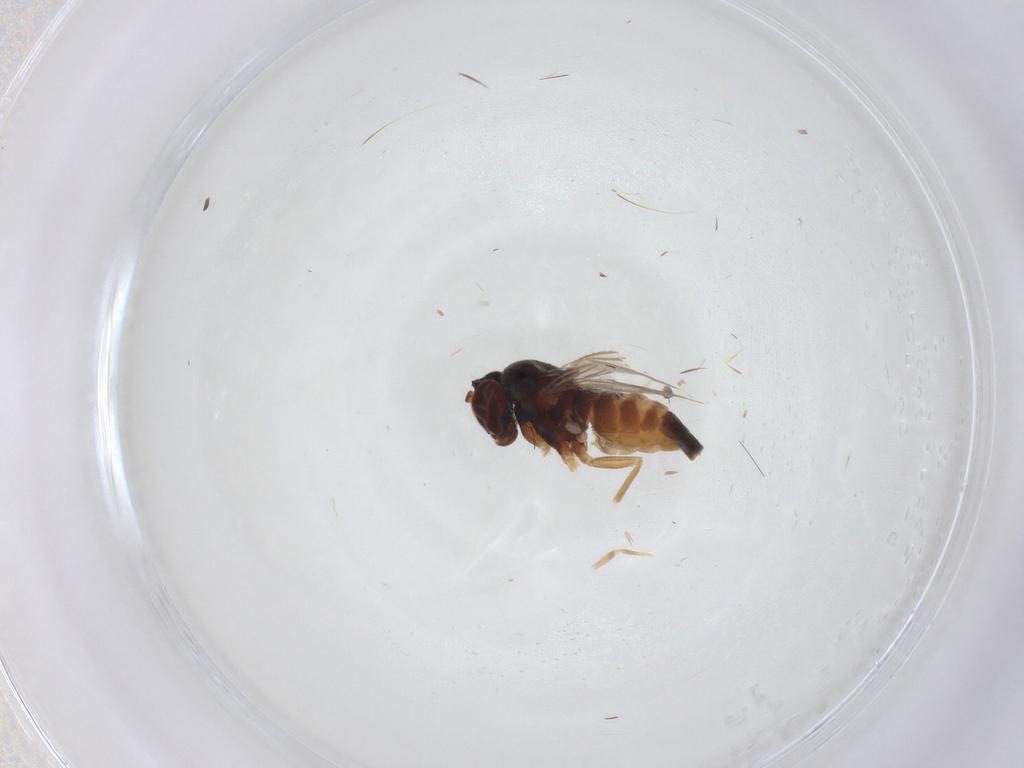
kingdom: Animalia
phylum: Arthropoda
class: Insecta
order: Diptera
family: Dolichopodidae
